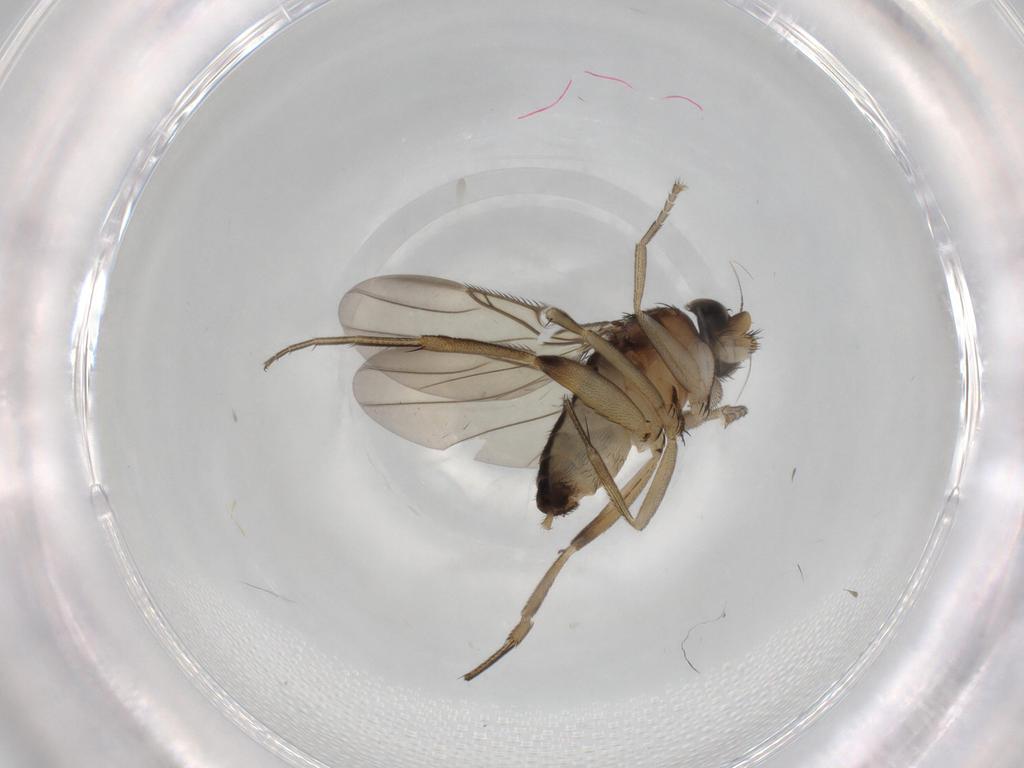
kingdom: Animalia
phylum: Arthropoda
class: Insecta
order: Diptera
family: Phoridae
